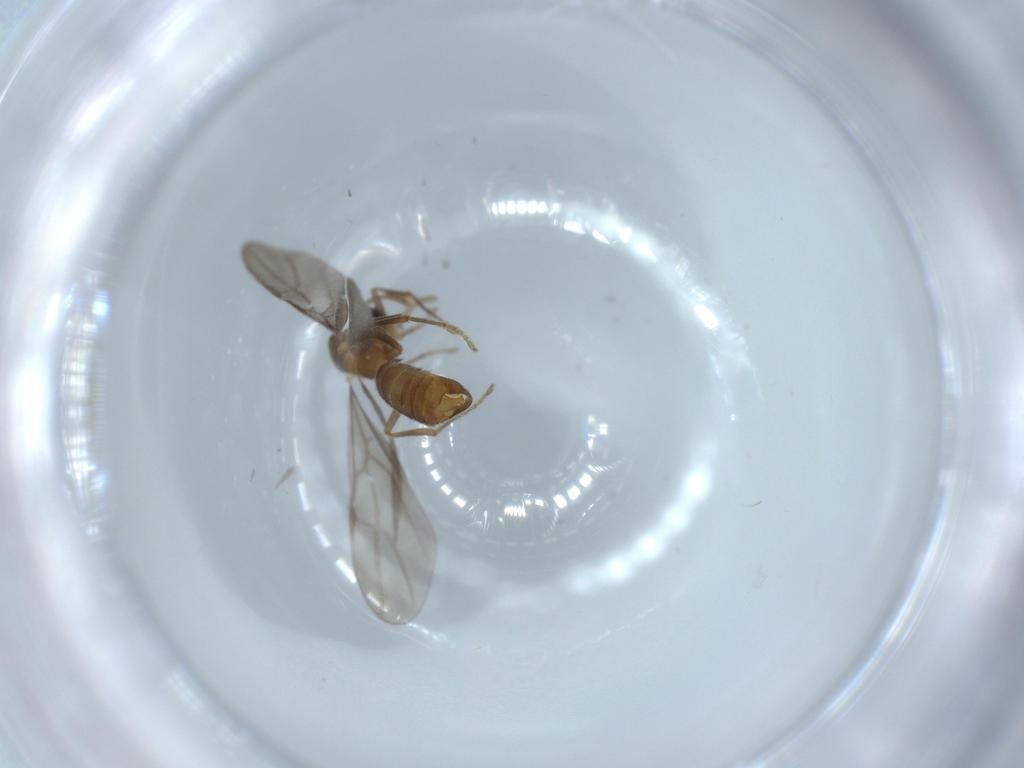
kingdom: Animalia
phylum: Arthropoda
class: Insecta
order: Hymenoptera
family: Formicidae
